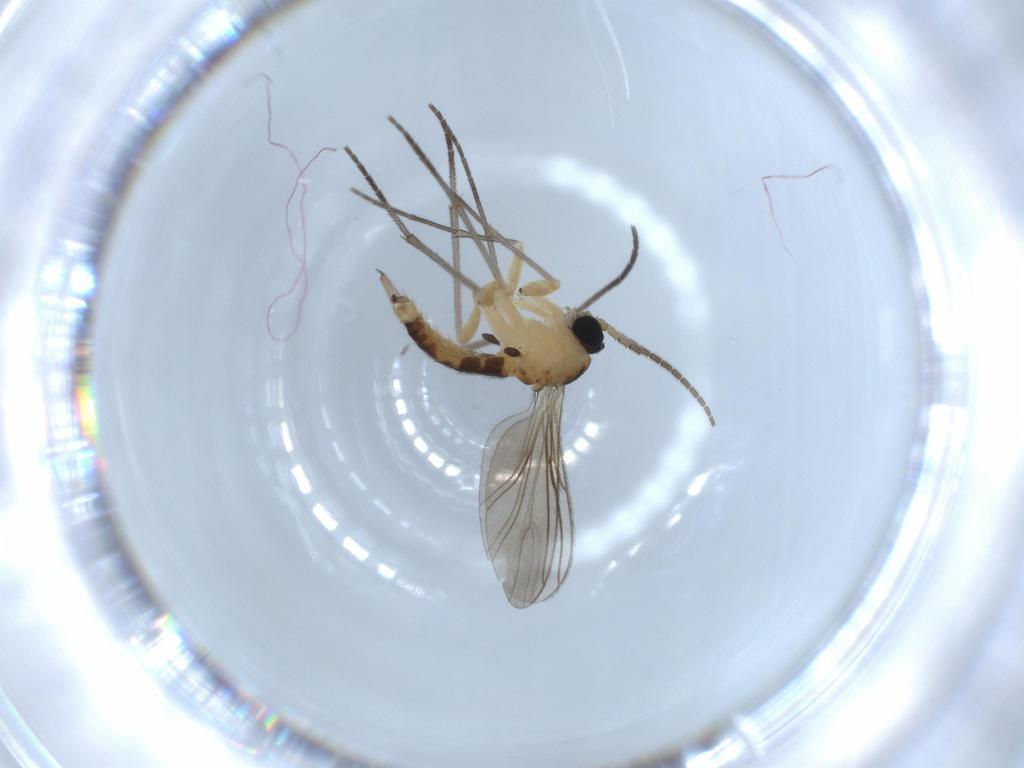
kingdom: Animalia
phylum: Arthropoda
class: Insecta
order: Diptera
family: Sciaridae
